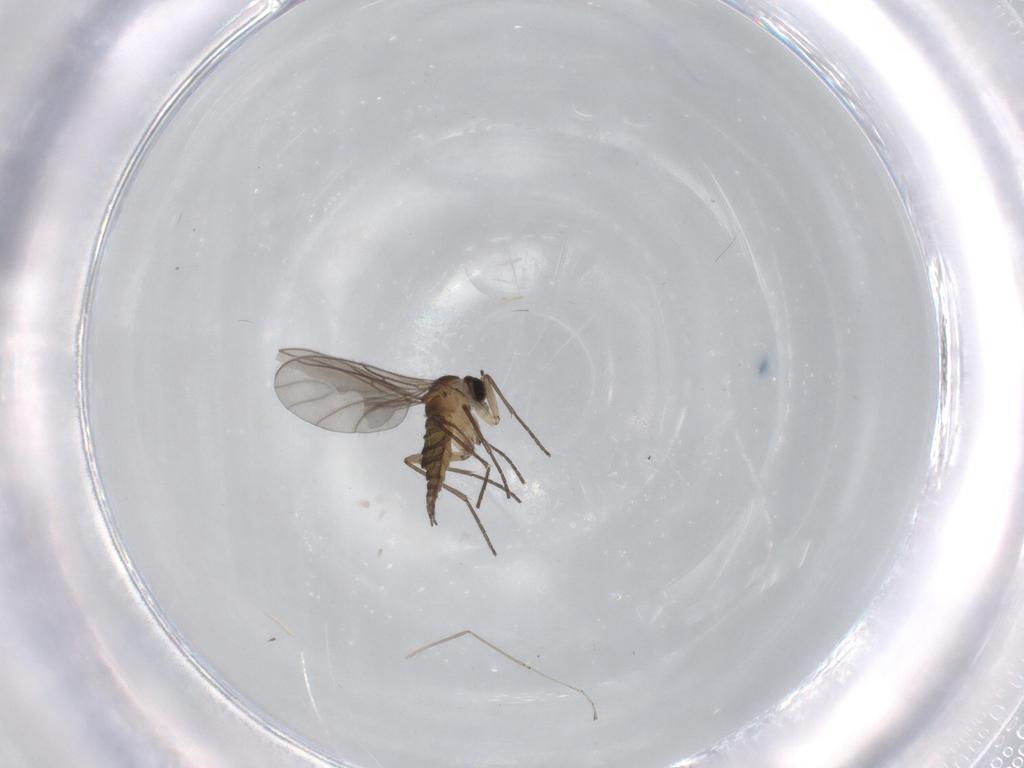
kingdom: Animalia
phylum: Arthropoda
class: Insecta
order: Diptera
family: Sciaridae
